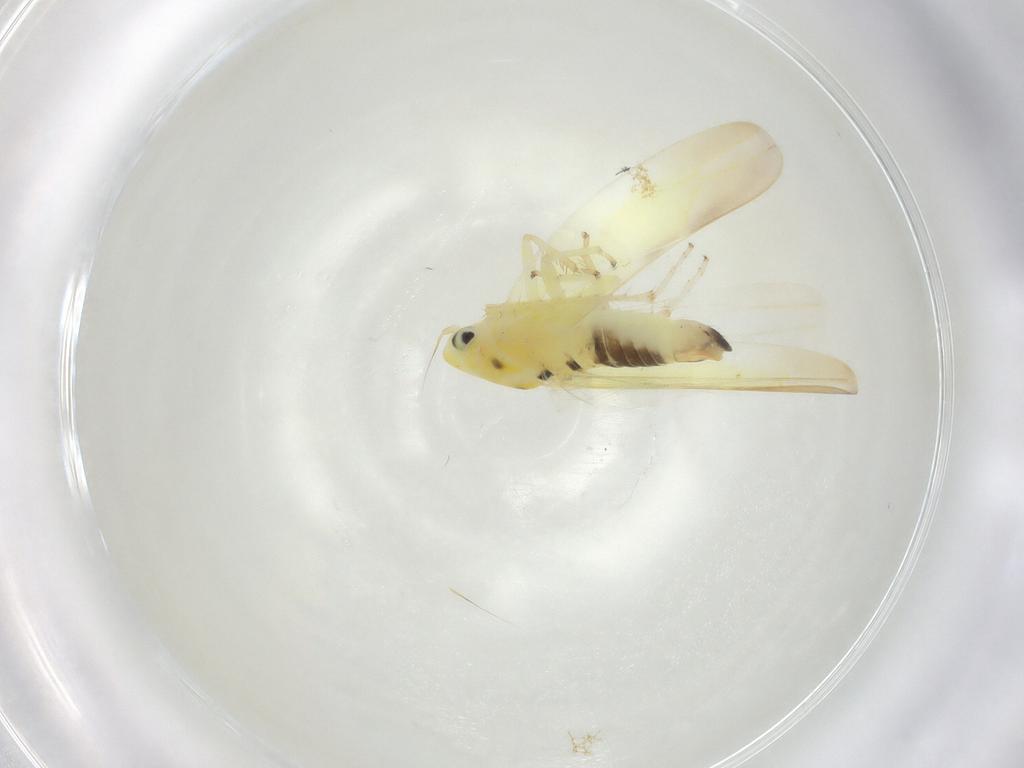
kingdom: Animalia
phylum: Arthropoda
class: Insecta
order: Hemiptera
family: Cicadellidae
